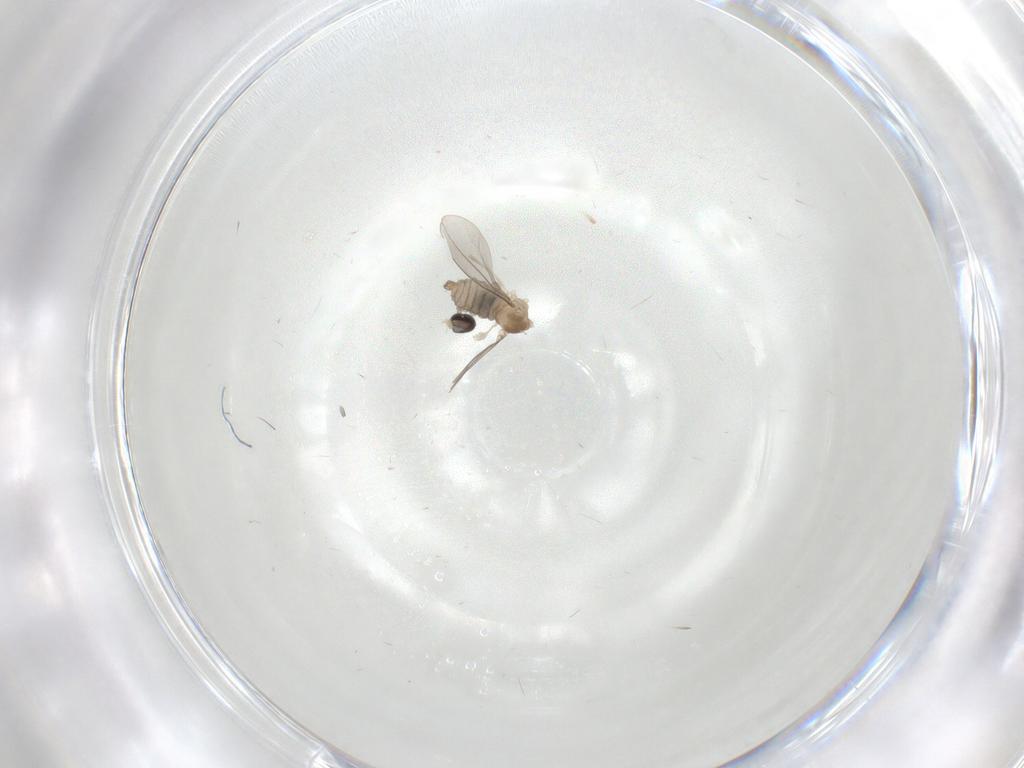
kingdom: Animalia
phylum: Arthropoda
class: Insecta
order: Diptera
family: Cecidomyiidae
